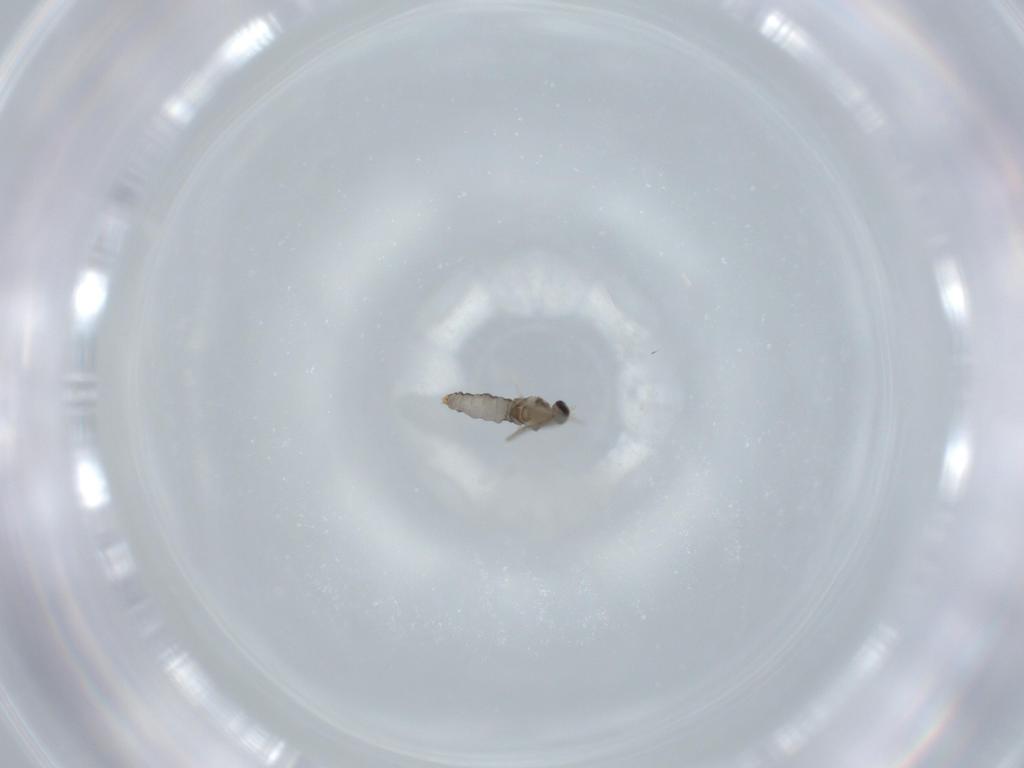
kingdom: Animalia
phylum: Arthropoda
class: Insecta
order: Diptera
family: Cecidomyiidae
